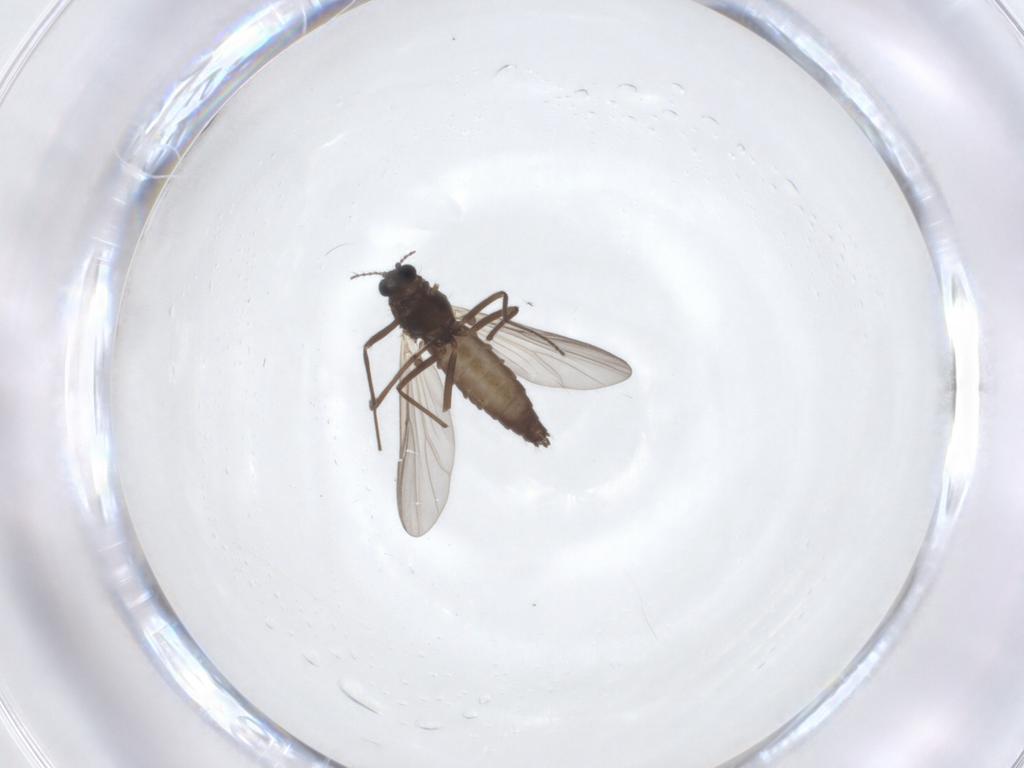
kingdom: Animalia
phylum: Arthropoda
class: Insecta
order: Diptera
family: Chironomidae
